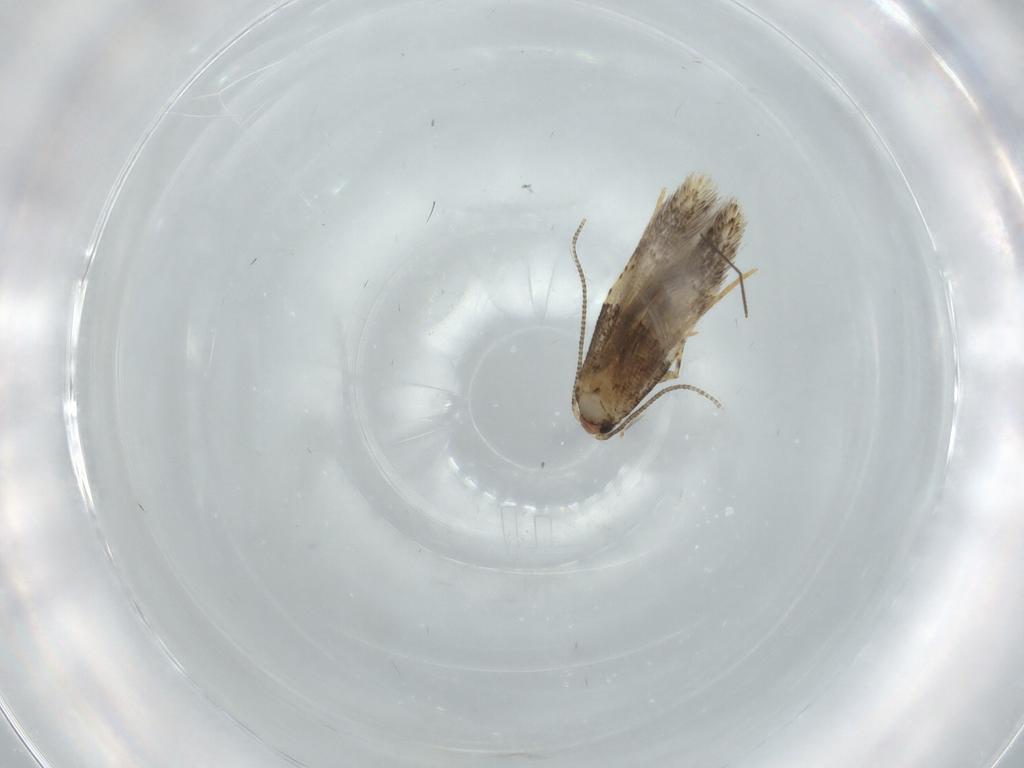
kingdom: Animalia
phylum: Arthropoda
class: Insecta
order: Lepidoptera
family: Tineidae
